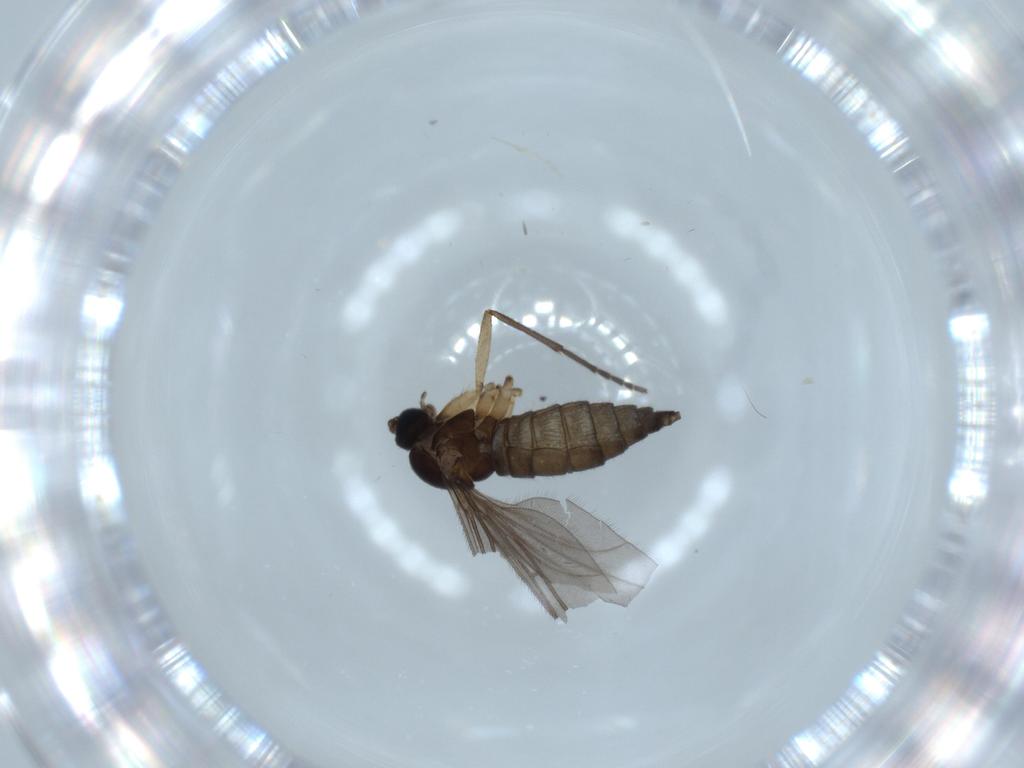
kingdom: Animalia
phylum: Arthropoda
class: Insecta
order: Diptera
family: Sciaridae
